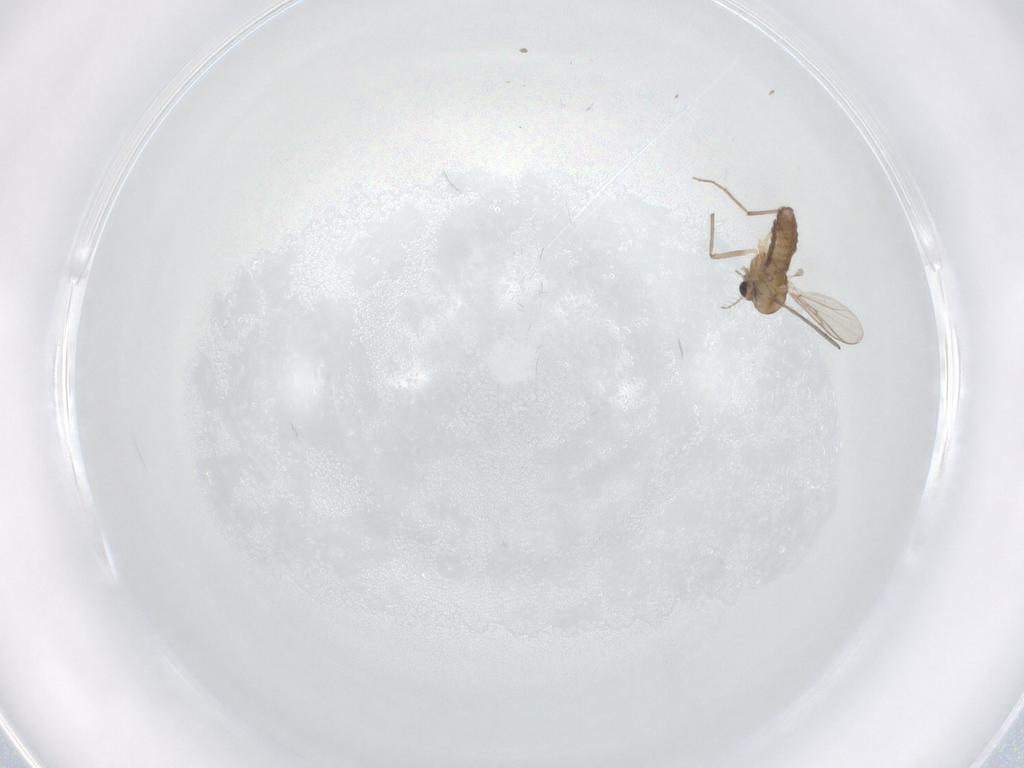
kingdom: Animalia
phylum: Arthropoda
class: Insecta
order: Diptera
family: Chironomidae
